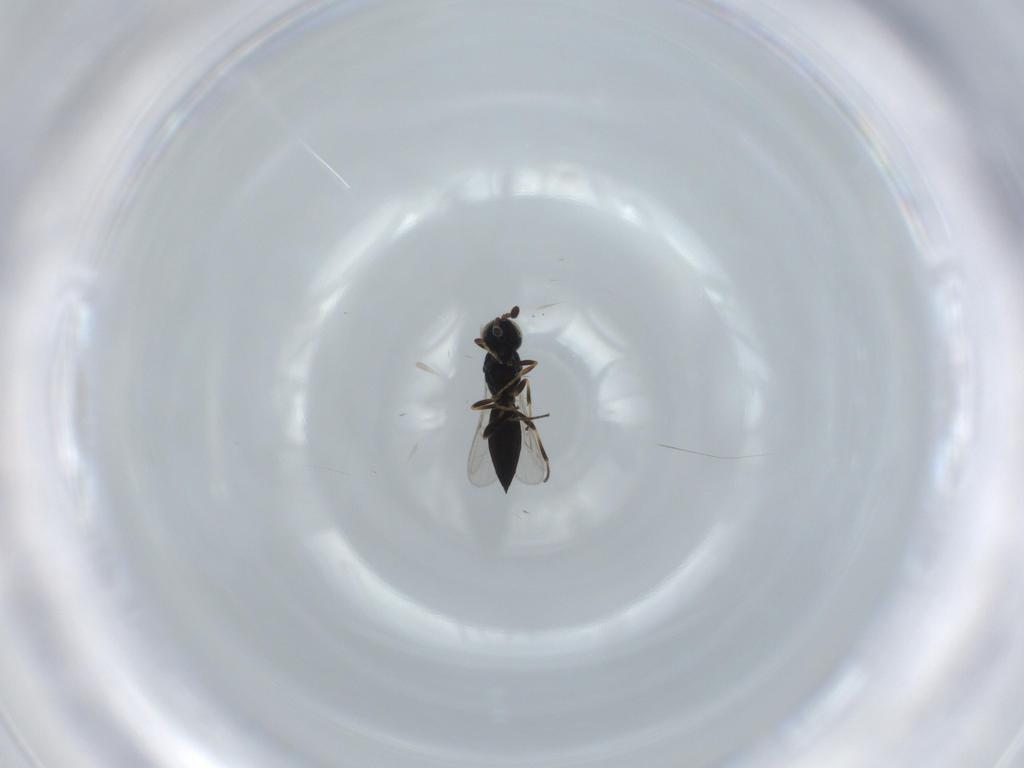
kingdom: Animalia
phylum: Arthropoda
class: Insecta
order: Hymenoptera
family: Scelionidae
